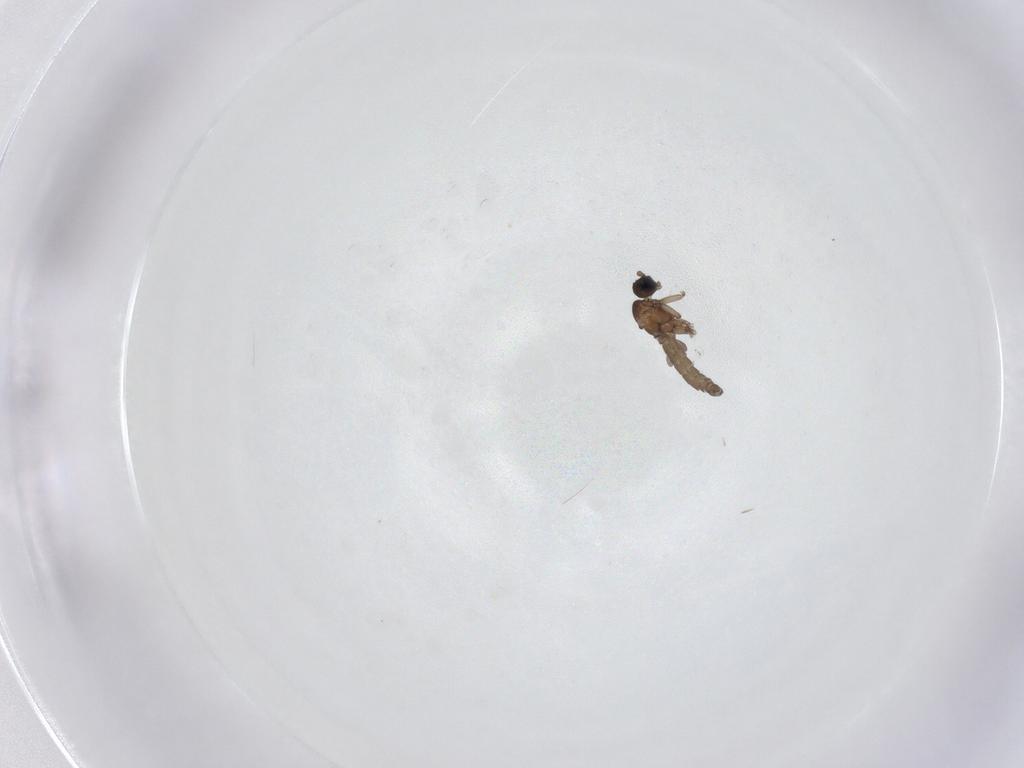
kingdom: Animalia
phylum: Arthropoda
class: Insecta
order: Diptera
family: Sciaridae
